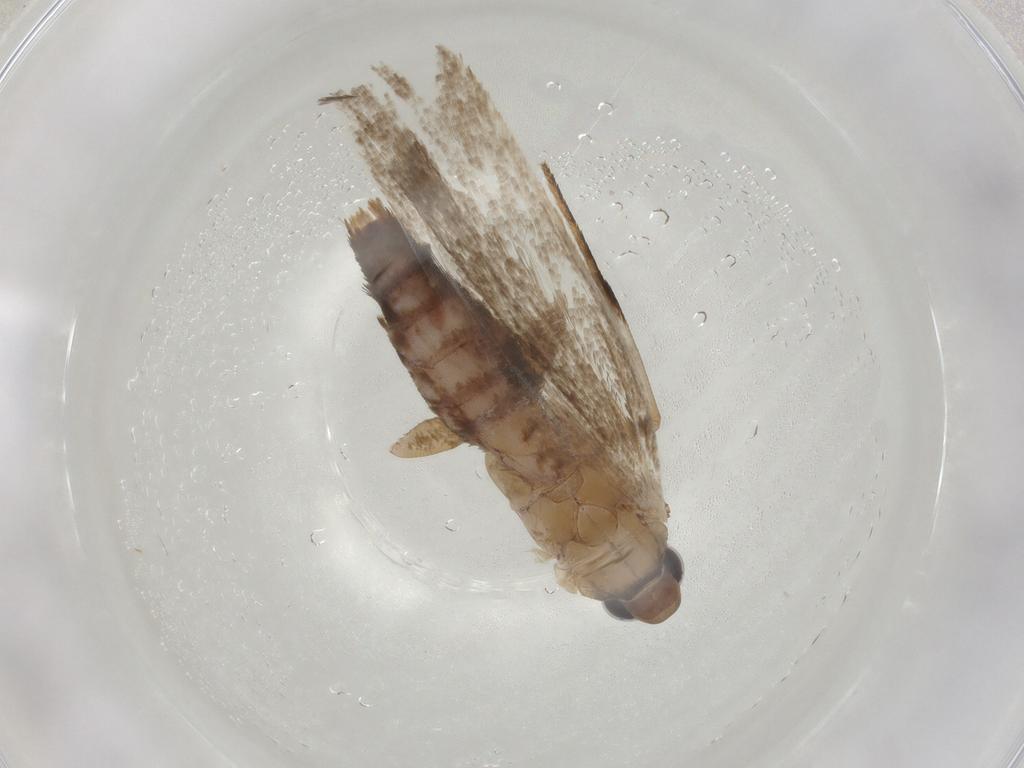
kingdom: Animalia
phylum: Arthropoda
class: Insecta
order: Lepidoptera
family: Gelechiidae
